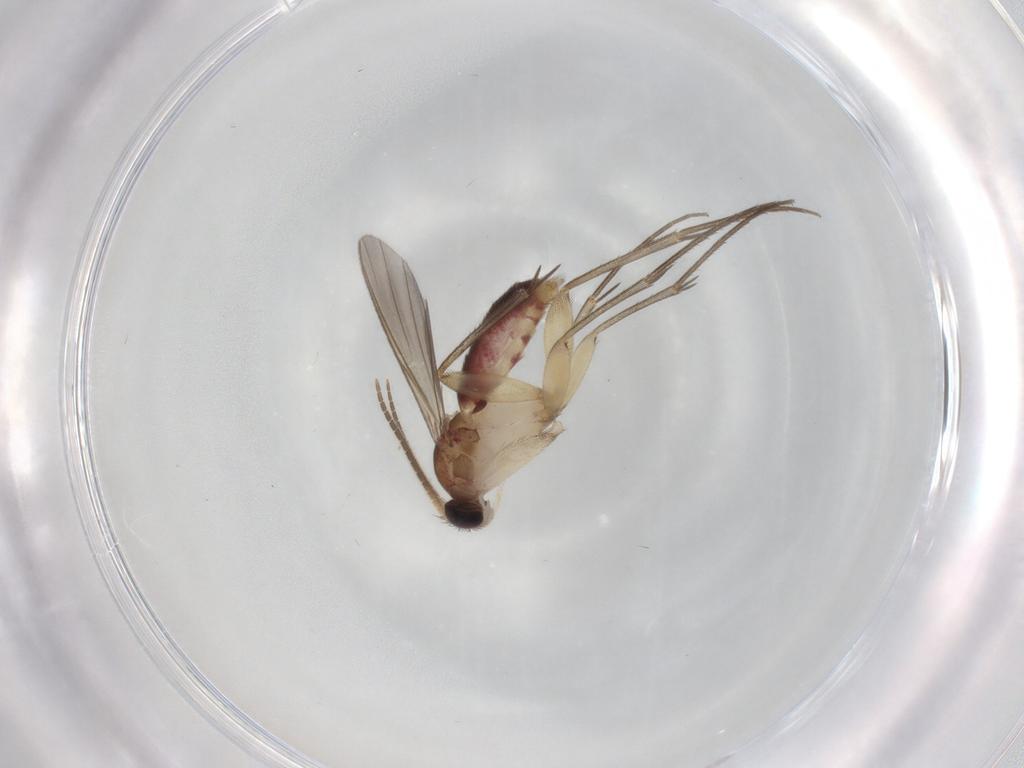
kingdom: Animalia
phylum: Arthropoda
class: Insecta
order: Diptera
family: Mycetophilidae
